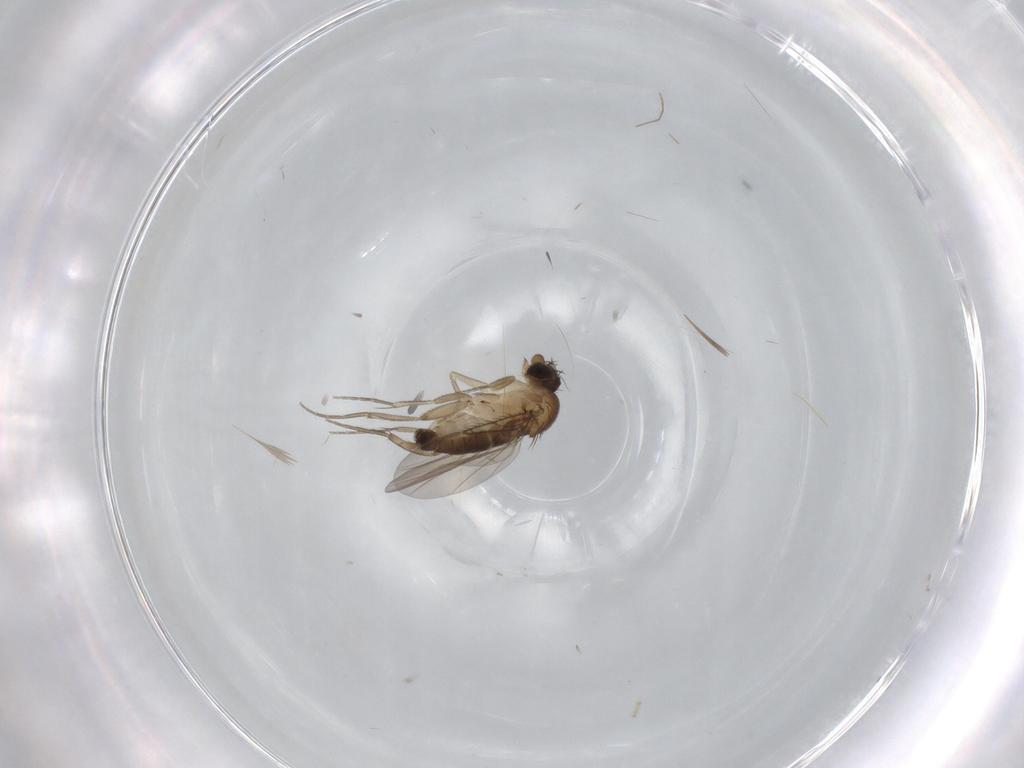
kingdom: Animalia
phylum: Arthropoda
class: Insecta
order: Diptera
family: Phoridae
